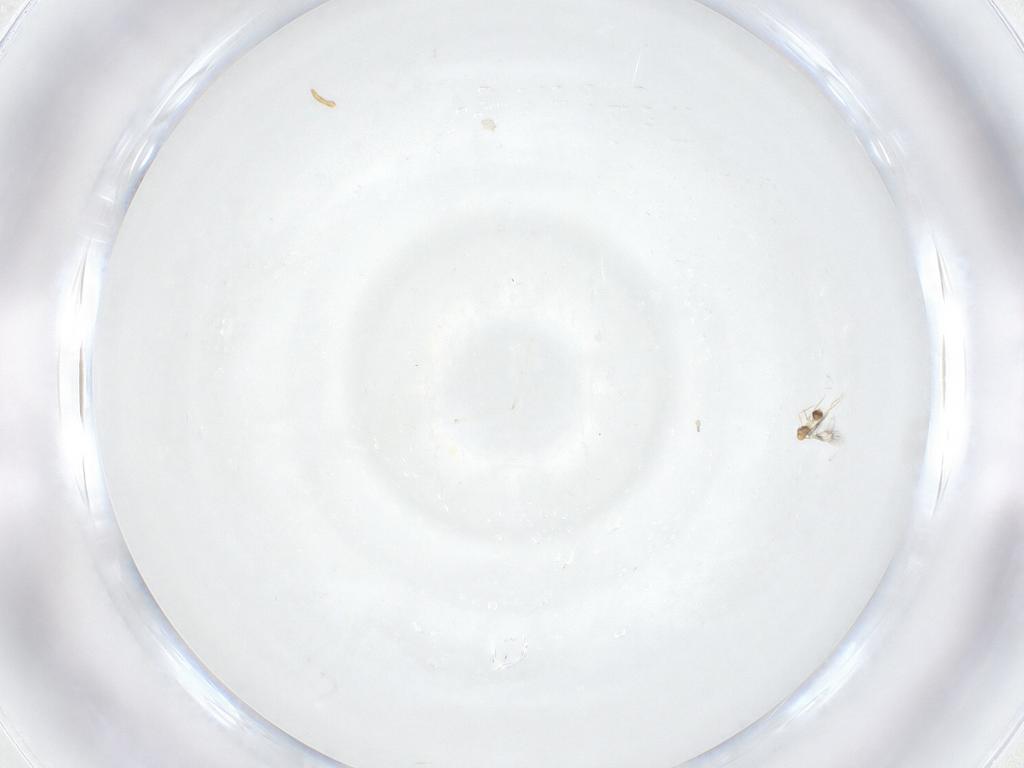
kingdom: Animalia
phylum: Arthropoda
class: Insecta
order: Diptera
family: Cecidomyiidae
